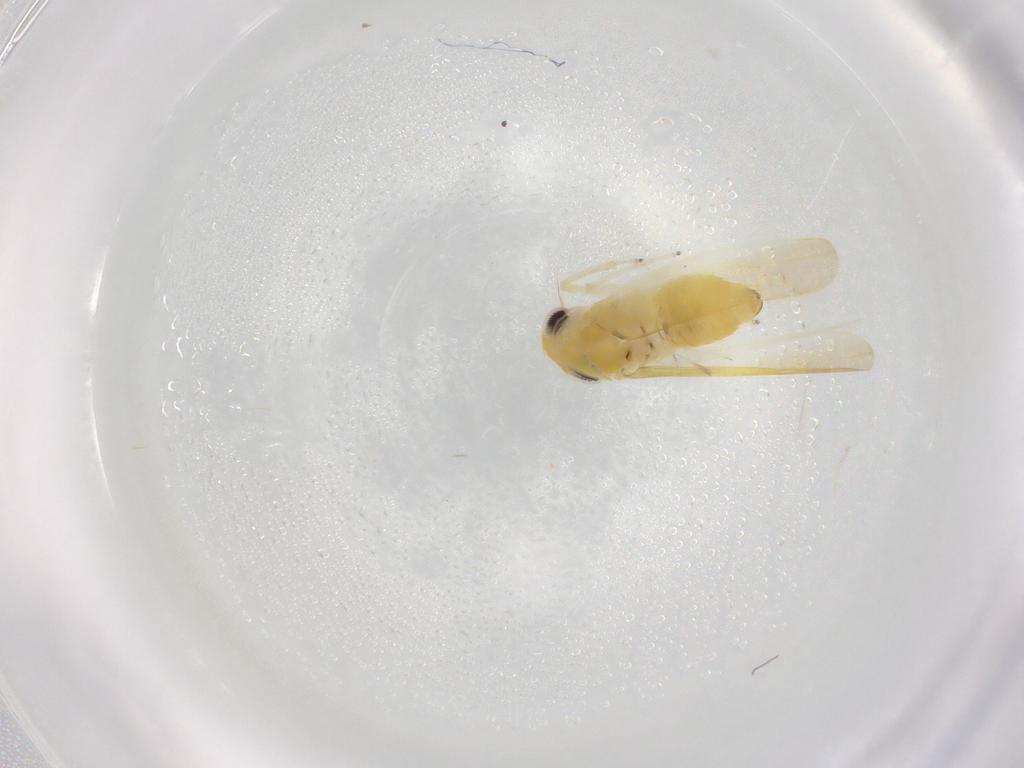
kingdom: Animalia
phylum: Arthropoda
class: Insecta
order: Hemiptera
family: Cicadellidae
